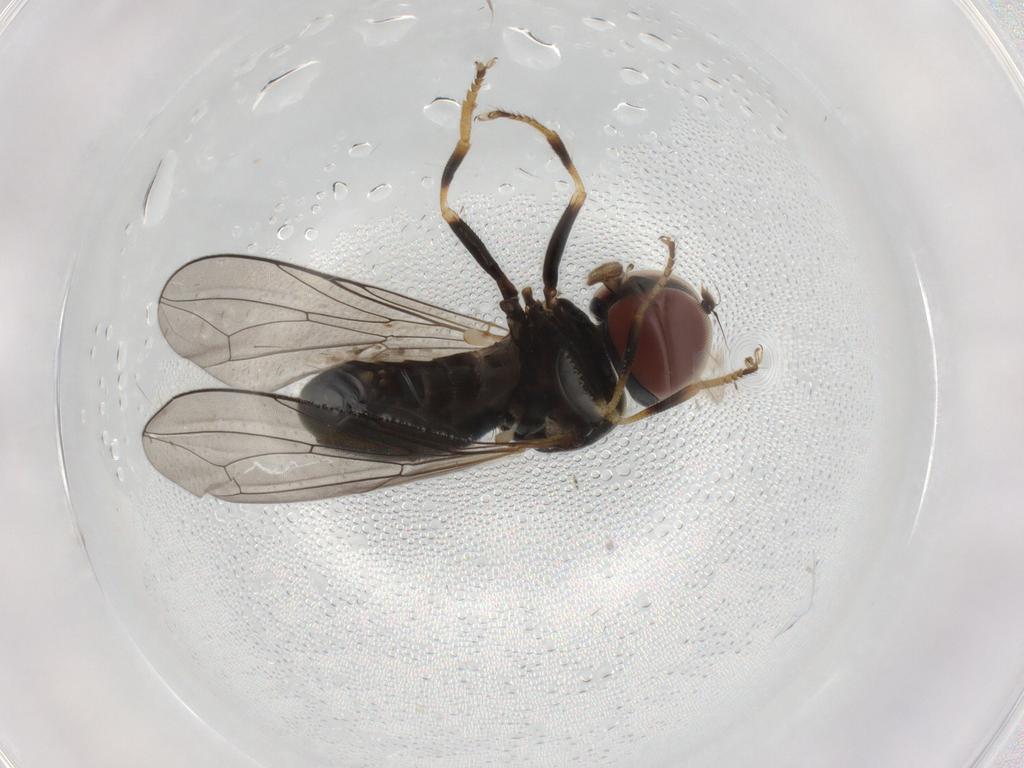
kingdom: Animalia
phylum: Arthropoda
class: Insecta
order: Diptera
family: Pipunculidae
